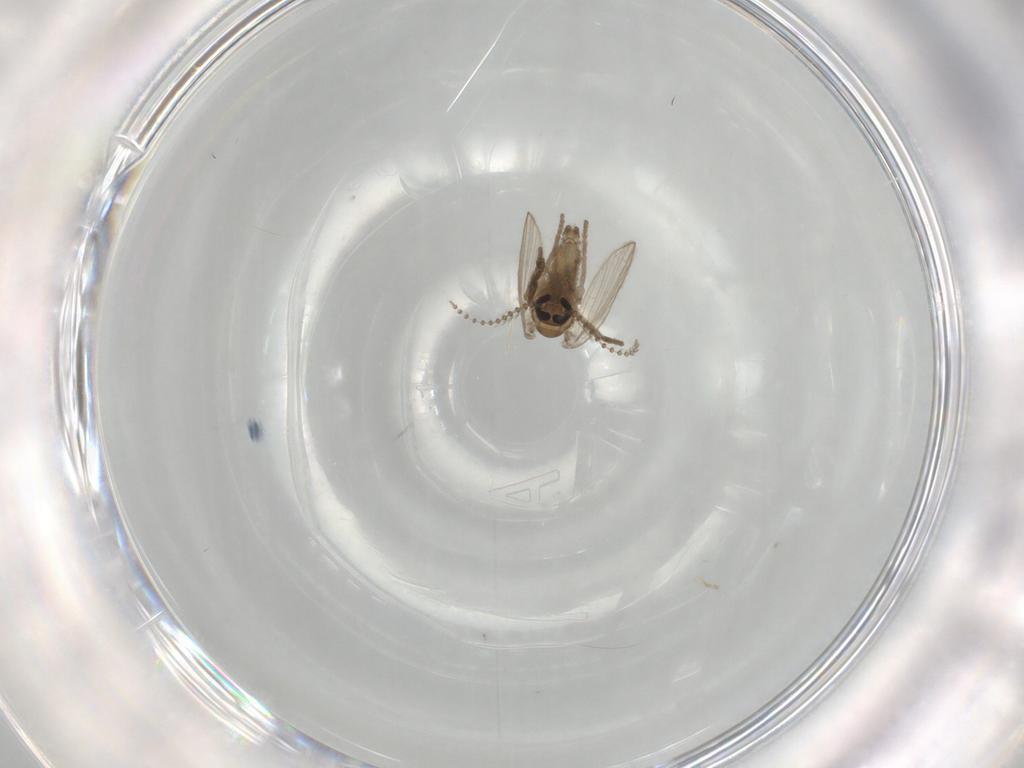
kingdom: Animalia
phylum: Arthropoda
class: Insecta
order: Diptera
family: Psychodidae
